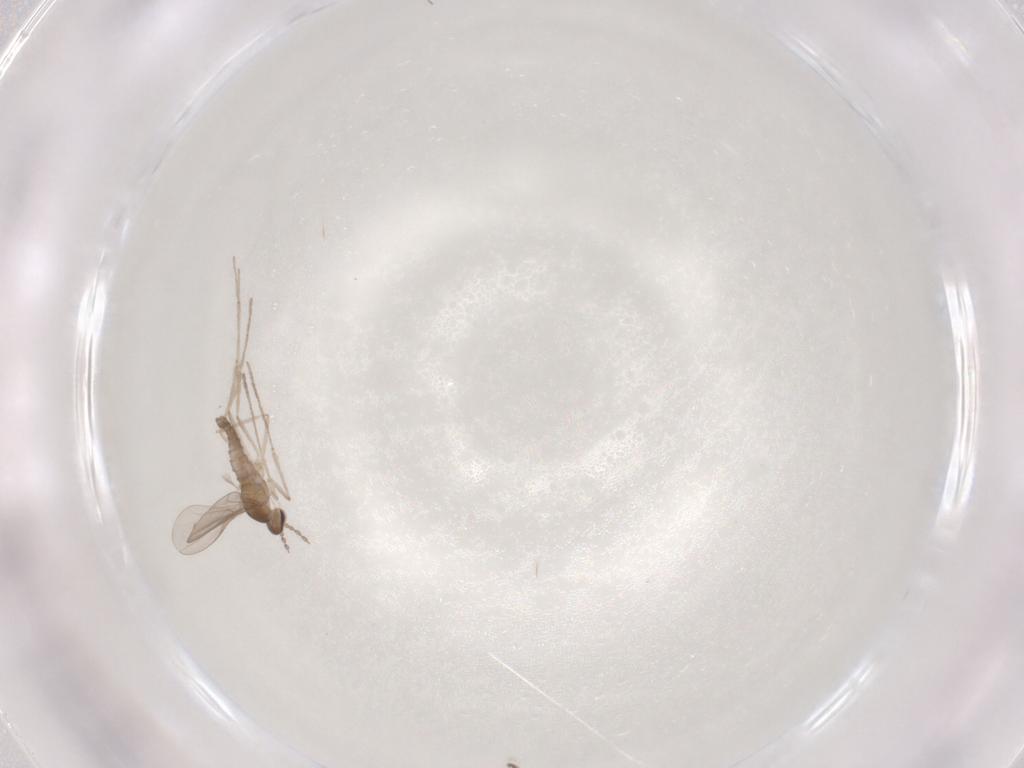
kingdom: Animalia
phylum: Arthropoda
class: Insecta
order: Diptera
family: Cecidomyiidae
